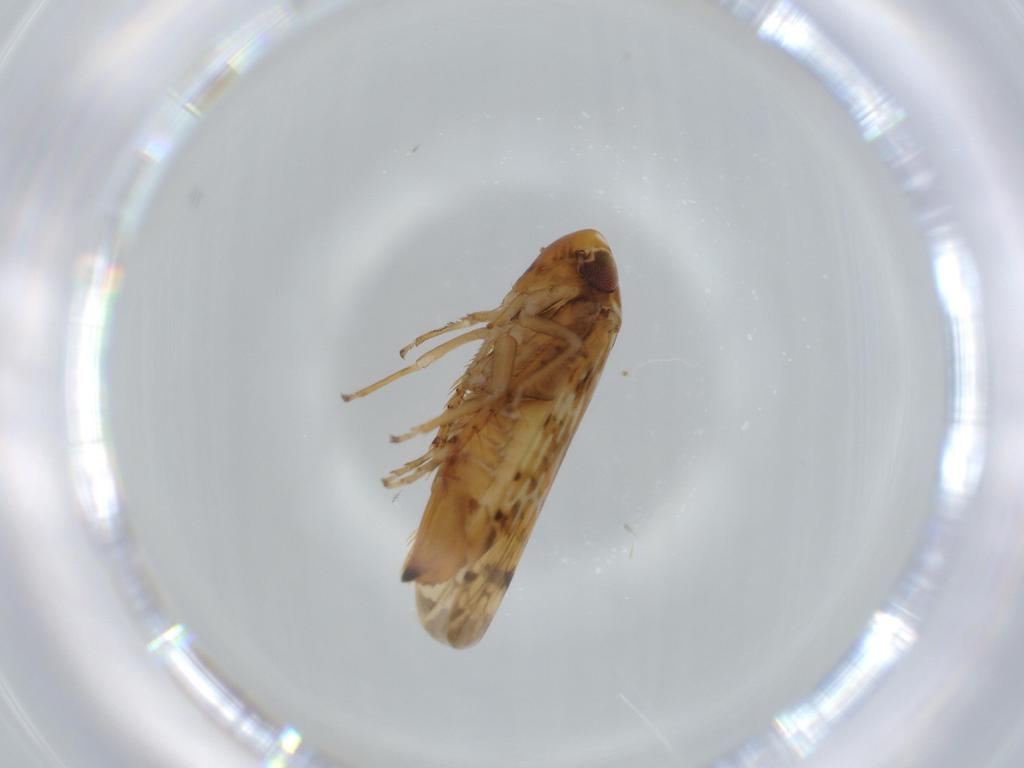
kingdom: Animalia
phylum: Arthropoda
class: Insecta
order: Hemiptera
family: Cicadellidae
